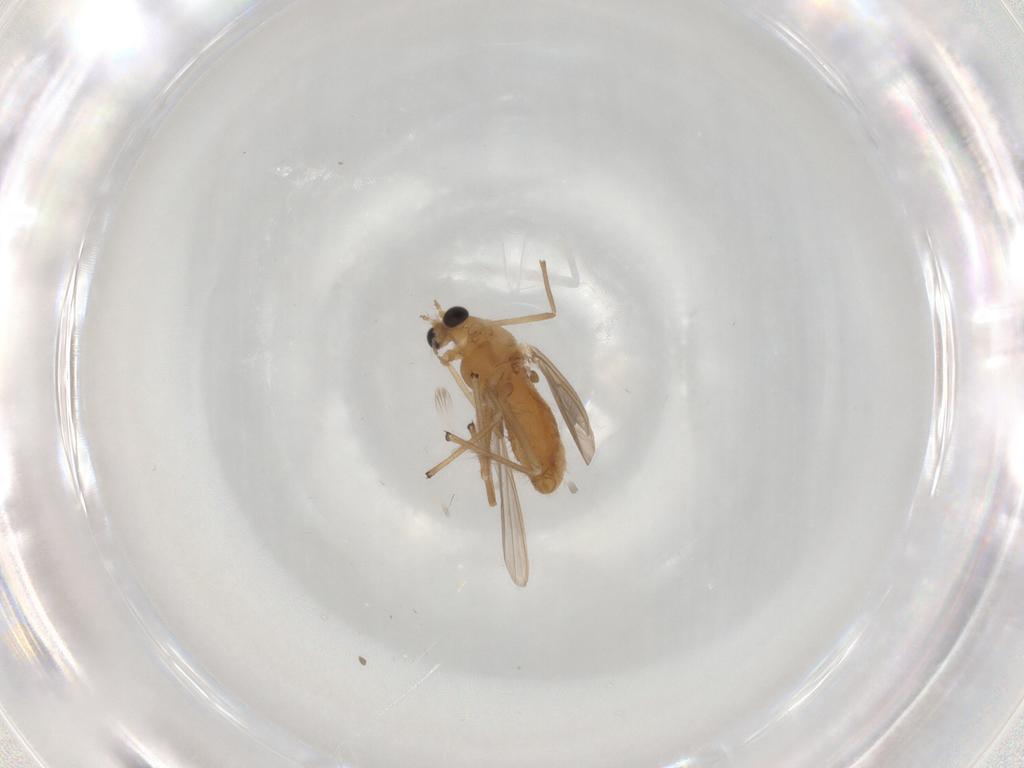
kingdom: Animalia
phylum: Arthropoda
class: Insecta
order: Diptera
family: Chironomidae
